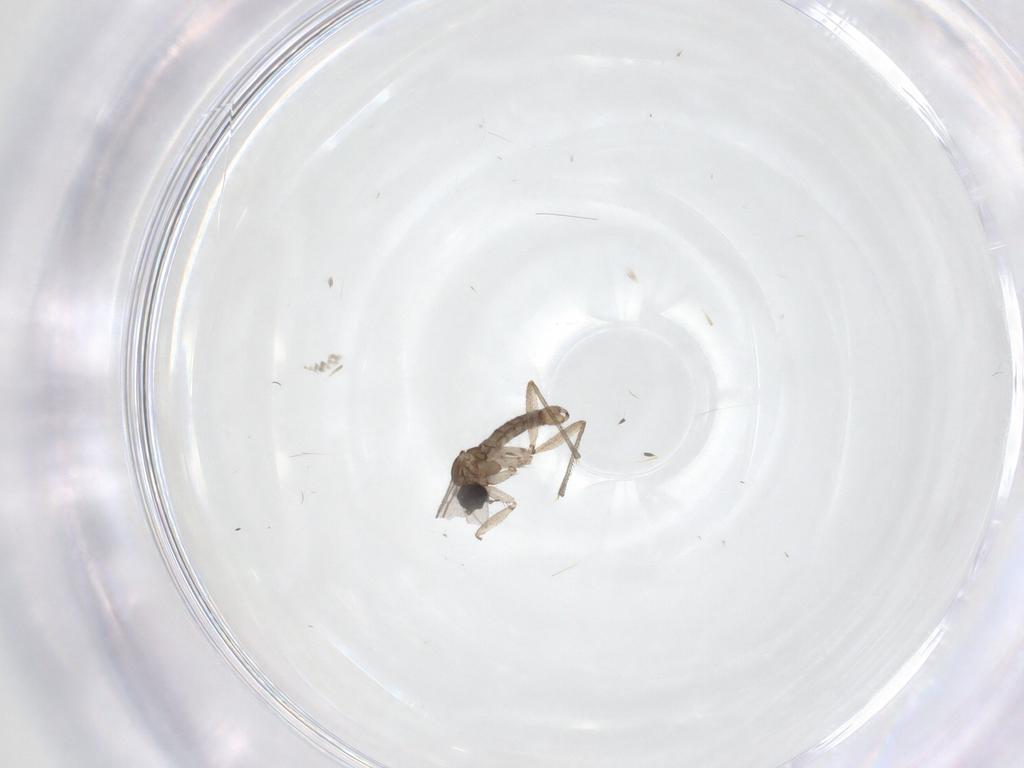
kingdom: Animalia
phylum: Arthropoda
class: Insecta
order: Diptera
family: Sciaridae
